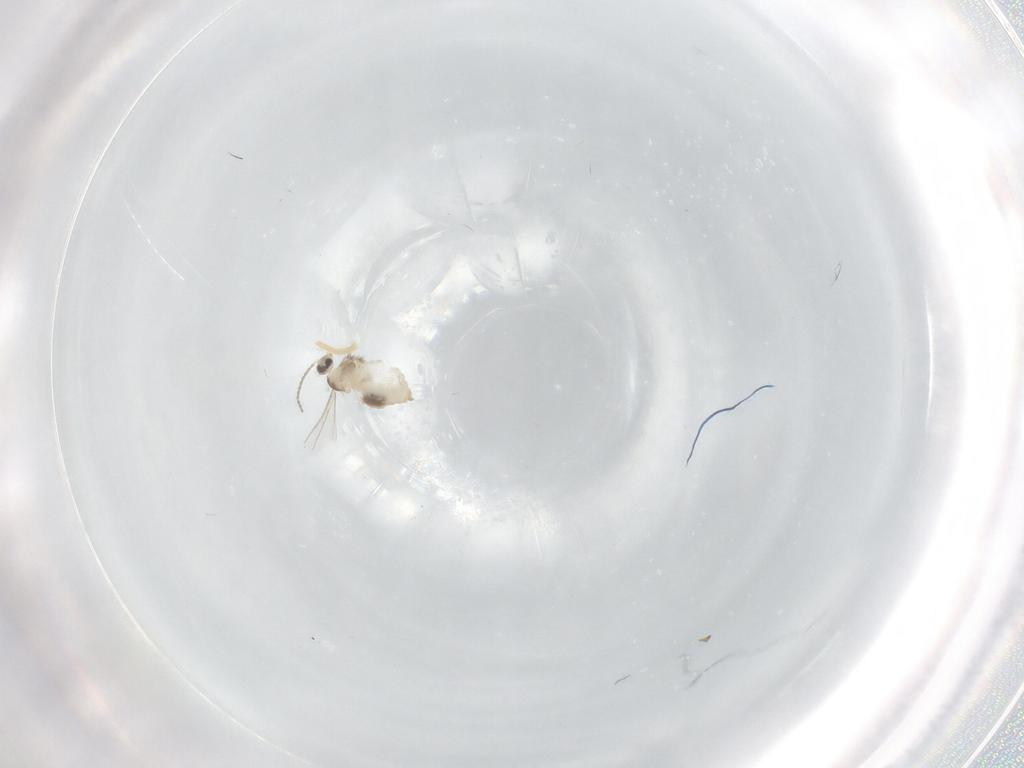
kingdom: Animalia
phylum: Arthropoda
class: Insecta
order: Diptera
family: Cecidomyiidae
